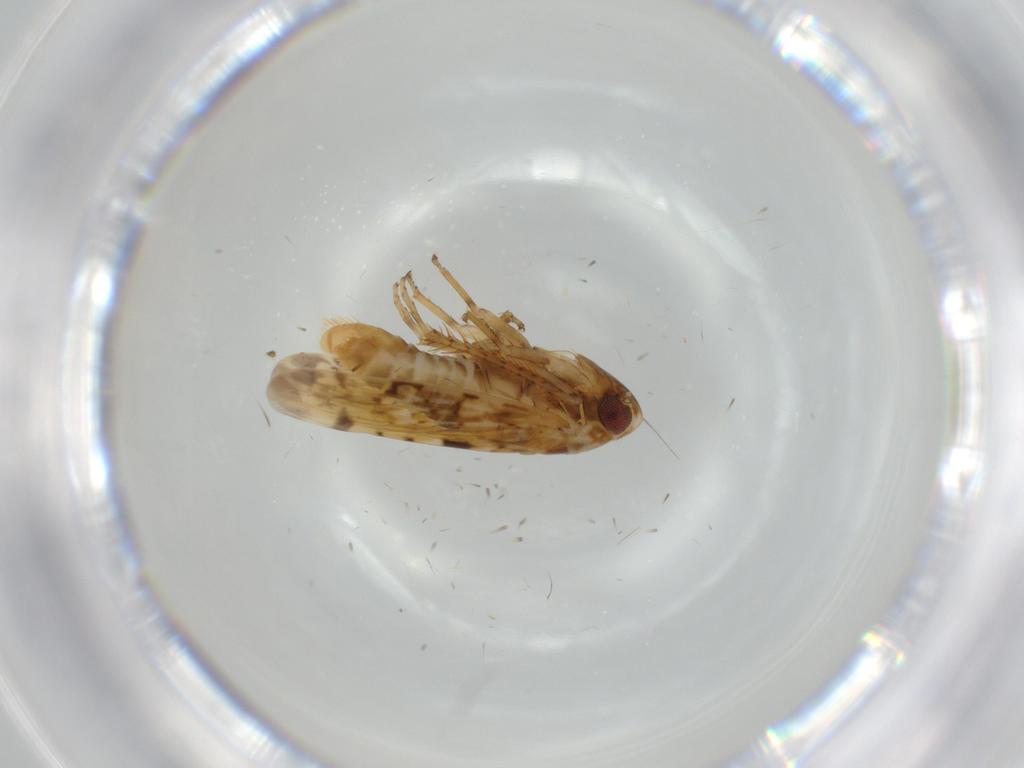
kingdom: Animalia
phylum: Arthropoda
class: Insecta
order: Hemiptera
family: Cicadellidae
